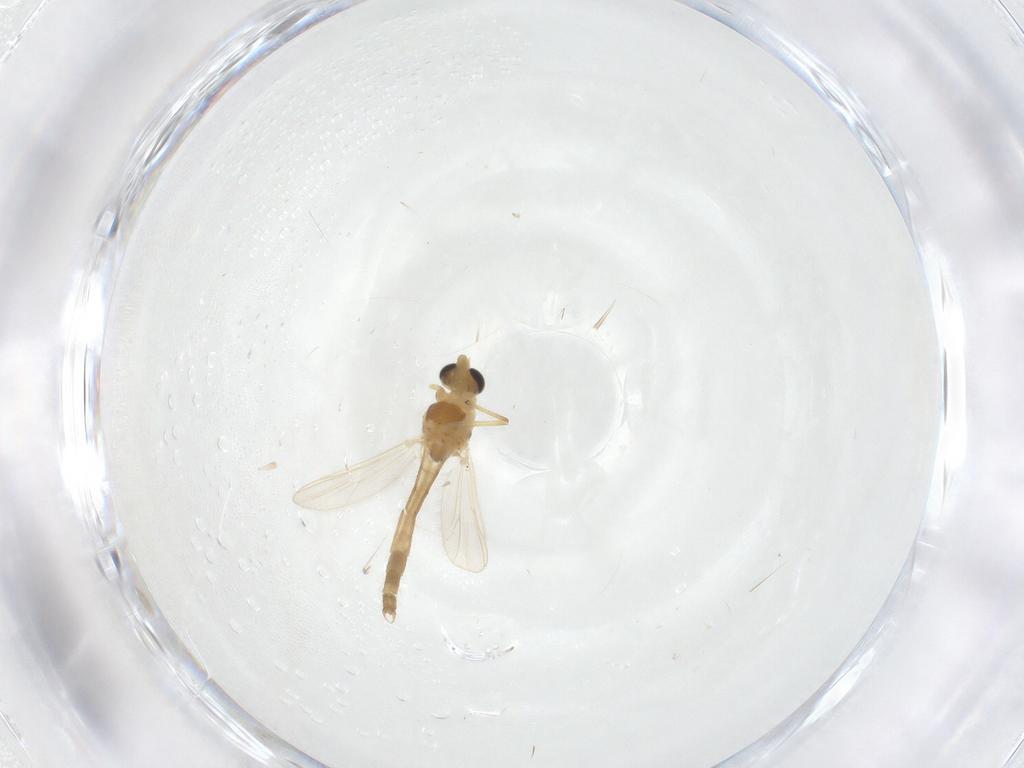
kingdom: Animalia
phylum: Arthropoda
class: Insecta
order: Diptera
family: Chironomidae
